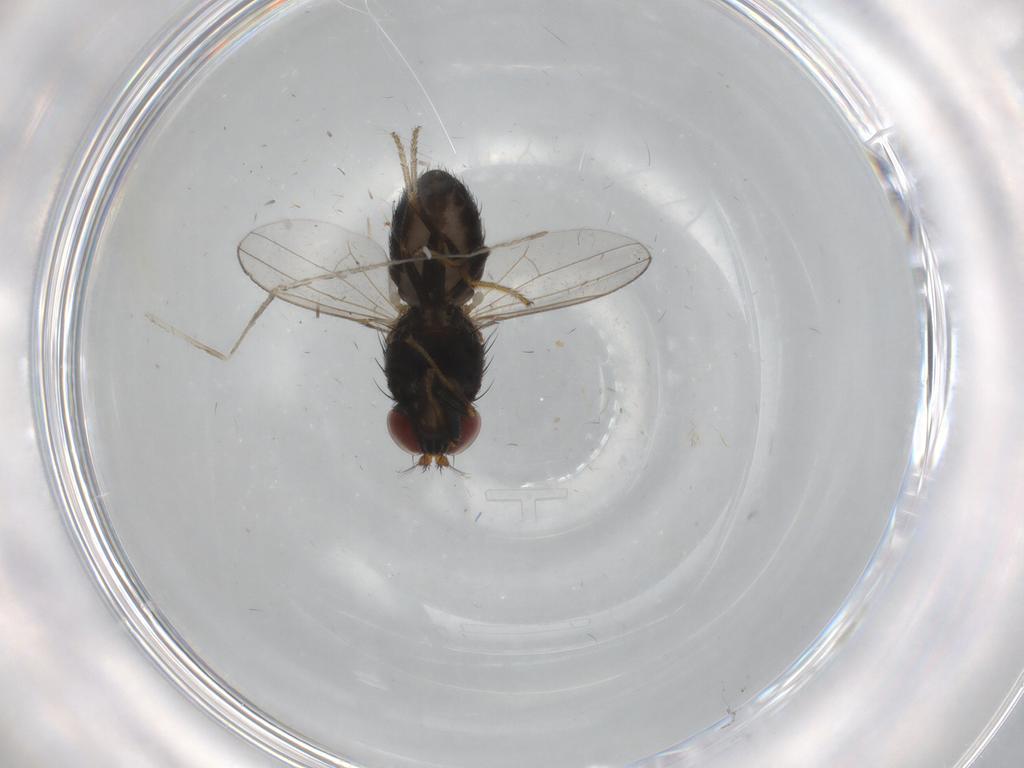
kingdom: Animalia
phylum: Arthropoda
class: Insecta
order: Diptera
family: Cecidomyiidae
